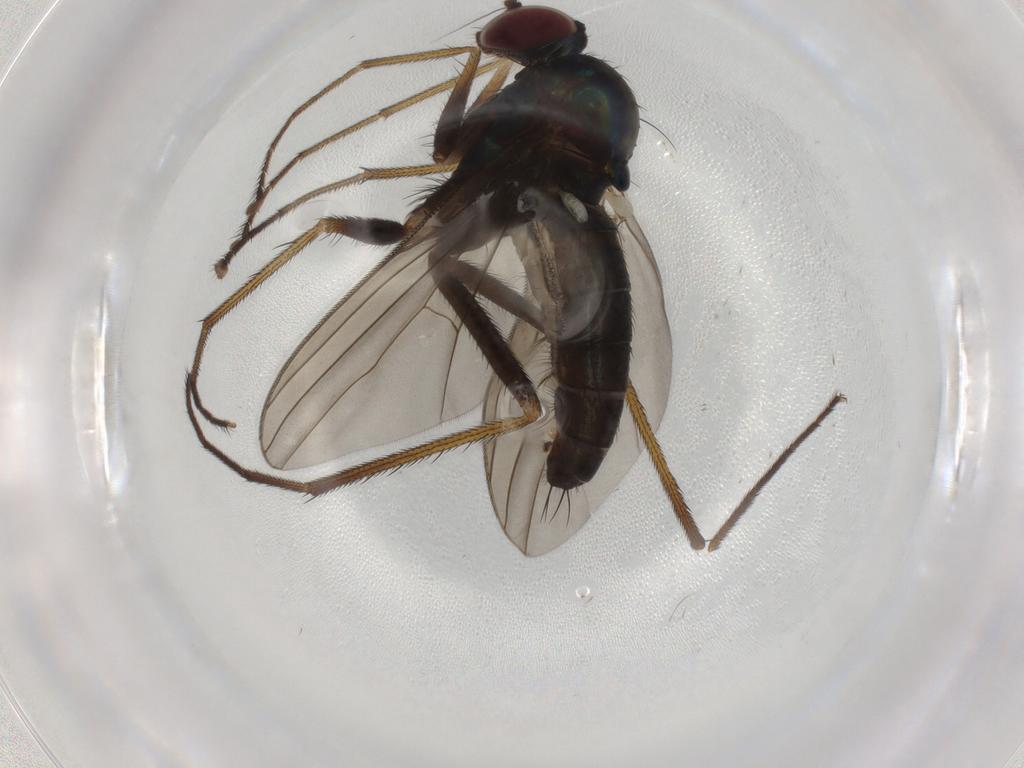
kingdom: Animalia
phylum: Arthropoda
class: Insecta
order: Diptera
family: Dolichopodidae
